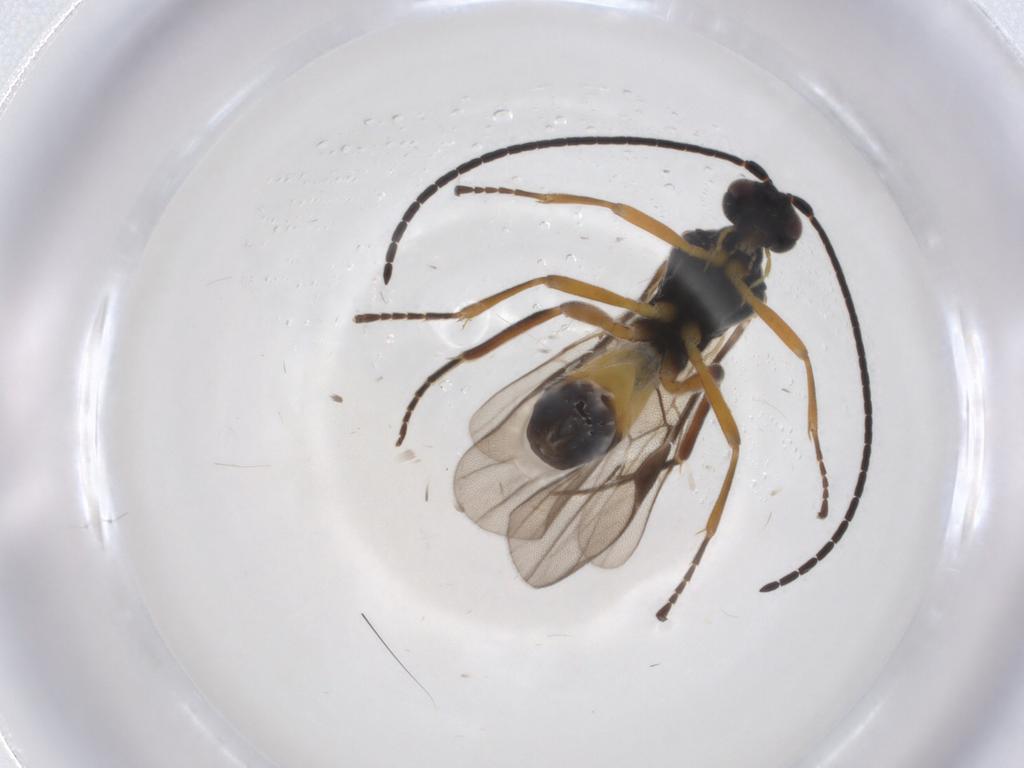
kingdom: Animalia
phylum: Arthropoda
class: Insecta
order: Hymenoptera
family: Braconidae
